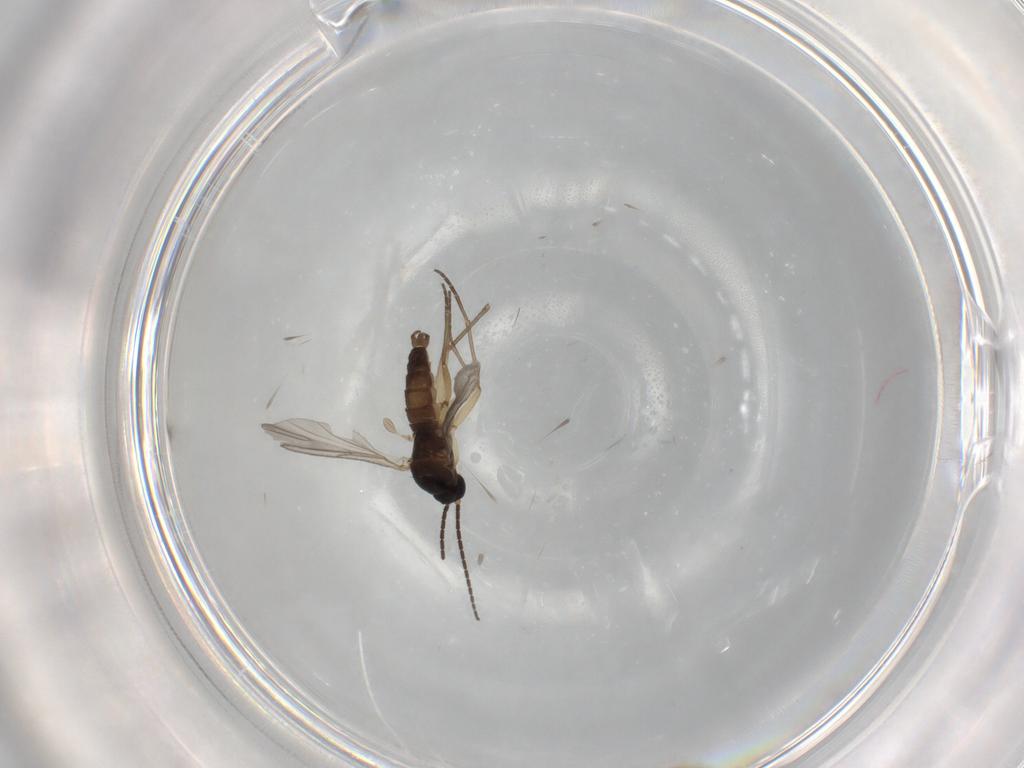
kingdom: Animalia
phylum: Arthropoda
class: Insecta
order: Diptera
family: Sciaridae
